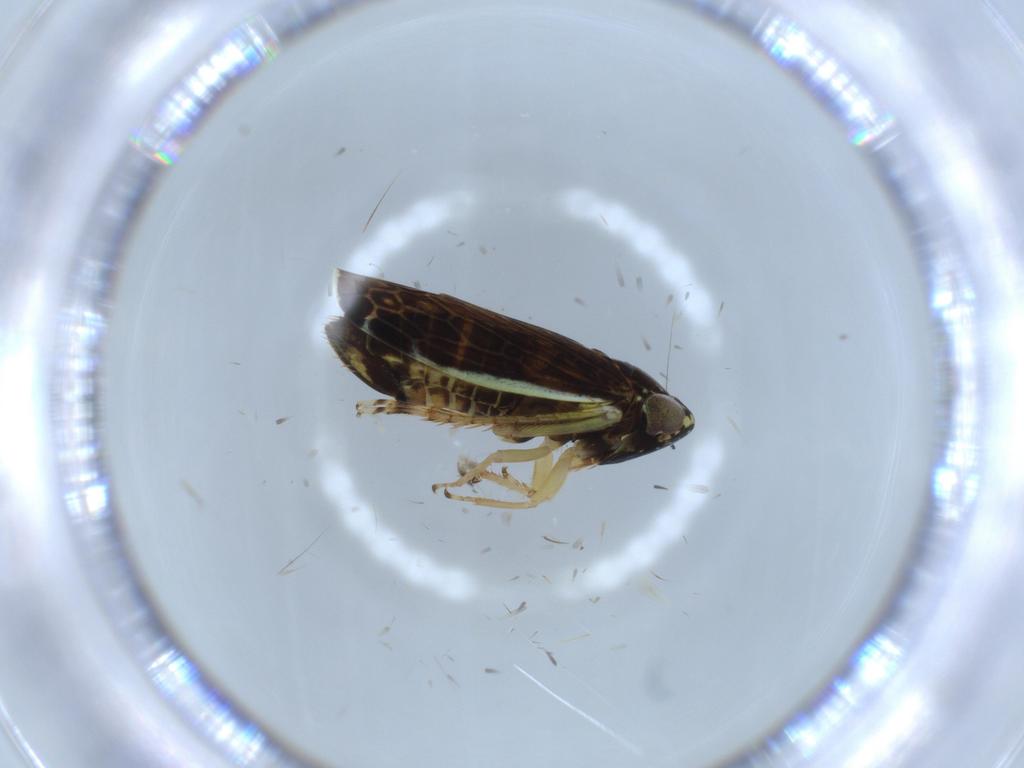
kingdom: Animalia
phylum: Arthropoda
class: Insecta
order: Hemiptera
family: Cicadellidae
